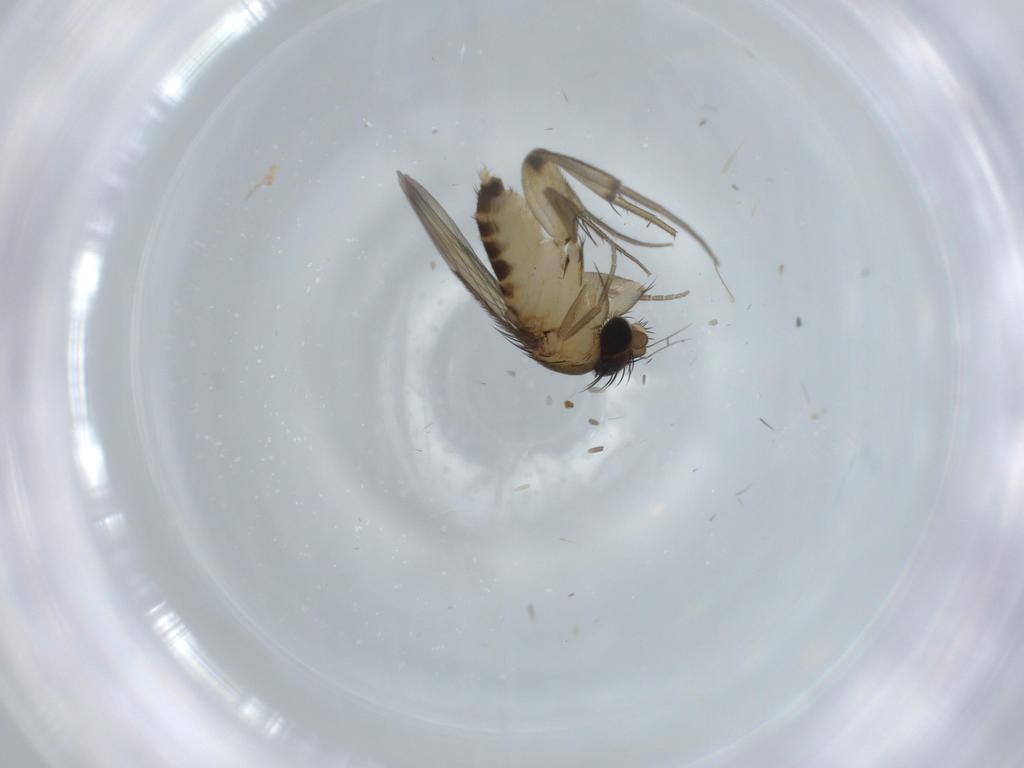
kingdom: Animalia
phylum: Arthropoda
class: Insecta
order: Diptera
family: Phoridae
